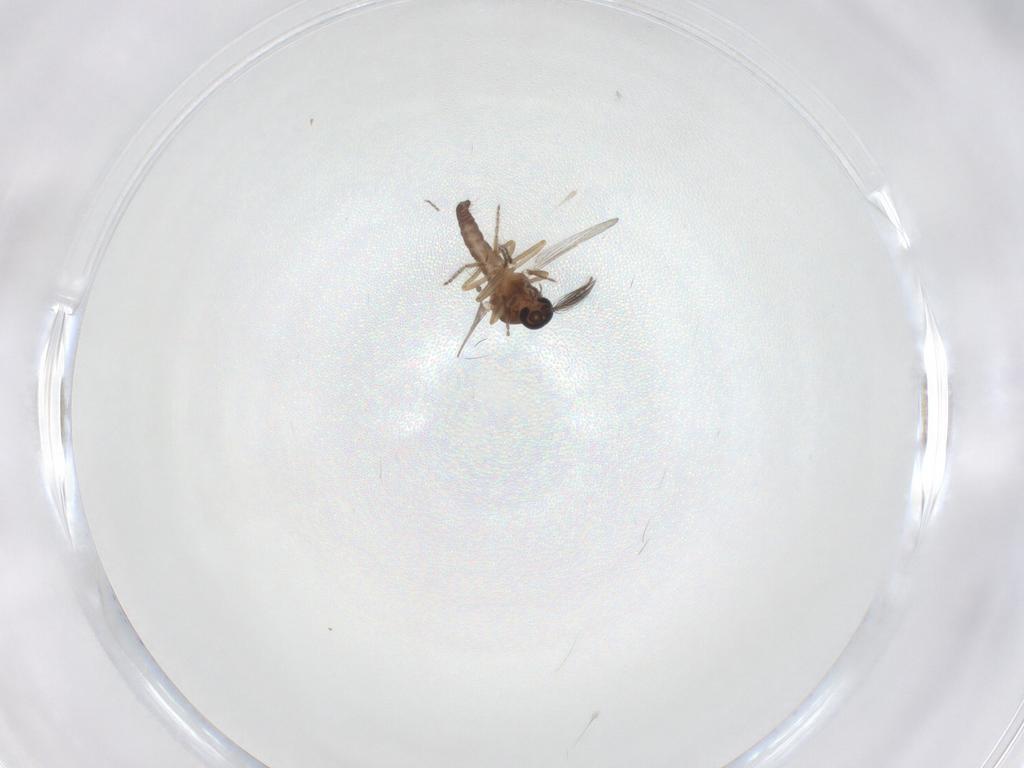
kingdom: Animalia
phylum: Arthropoda
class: Insecta
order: Diptera
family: Ceratopogonidae
